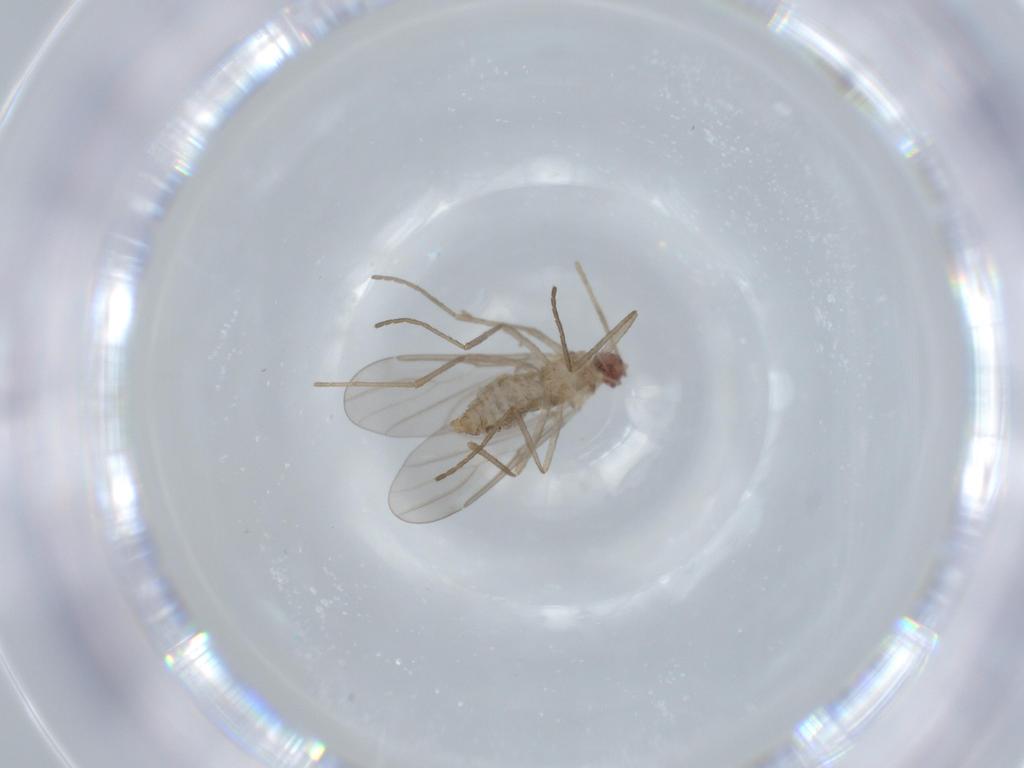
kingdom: Animalia
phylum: Arthropoda
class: Insecta
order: Diptera
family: Cecidomyiidae
